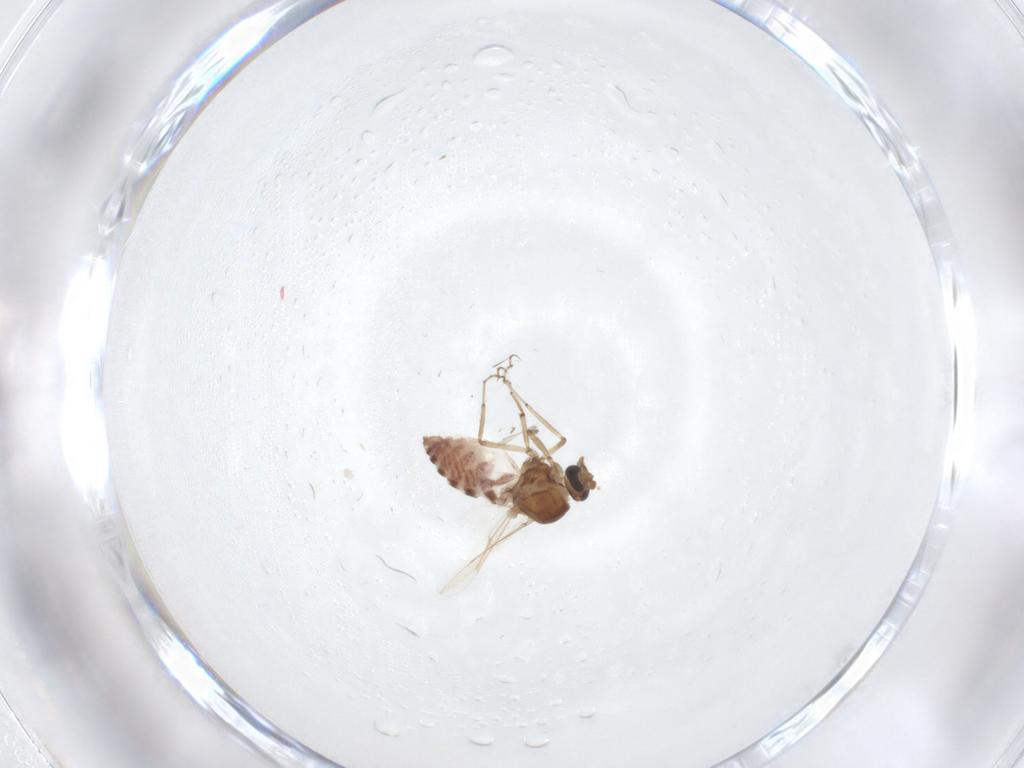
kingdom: Animalia
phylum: Arthropoda
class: Insecta
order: Diptera
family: Ceratopogonidae
